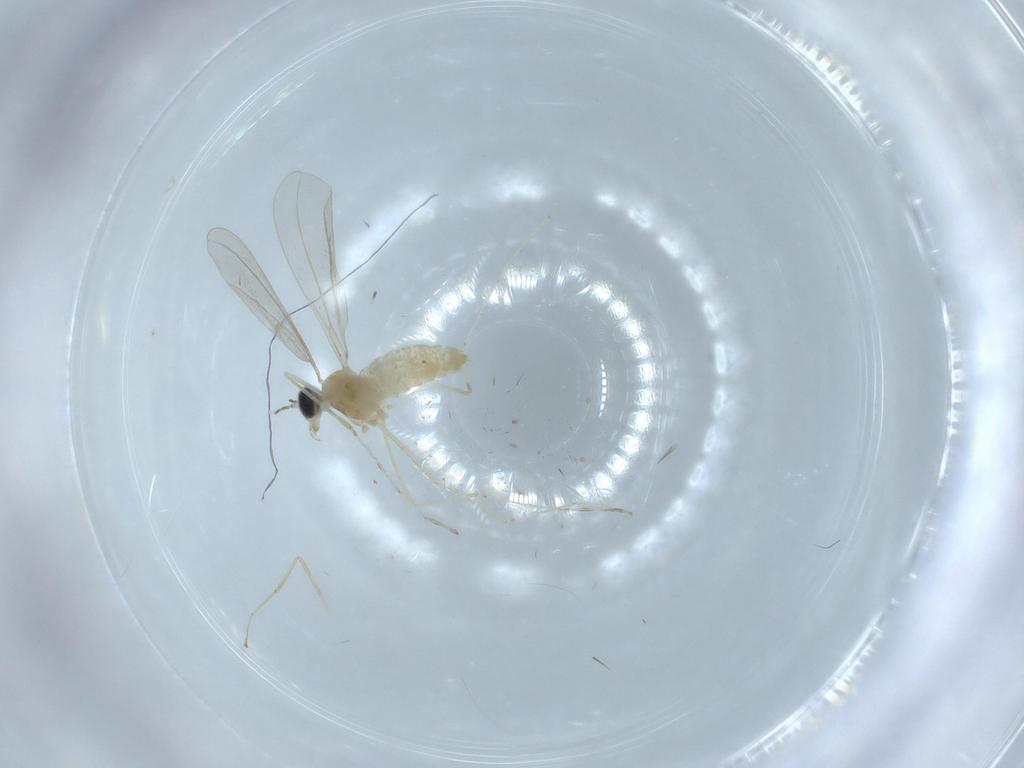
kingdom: Animalia
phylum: Arthropoda
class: Insecta
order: Diptera
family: Cecidomyiidae
